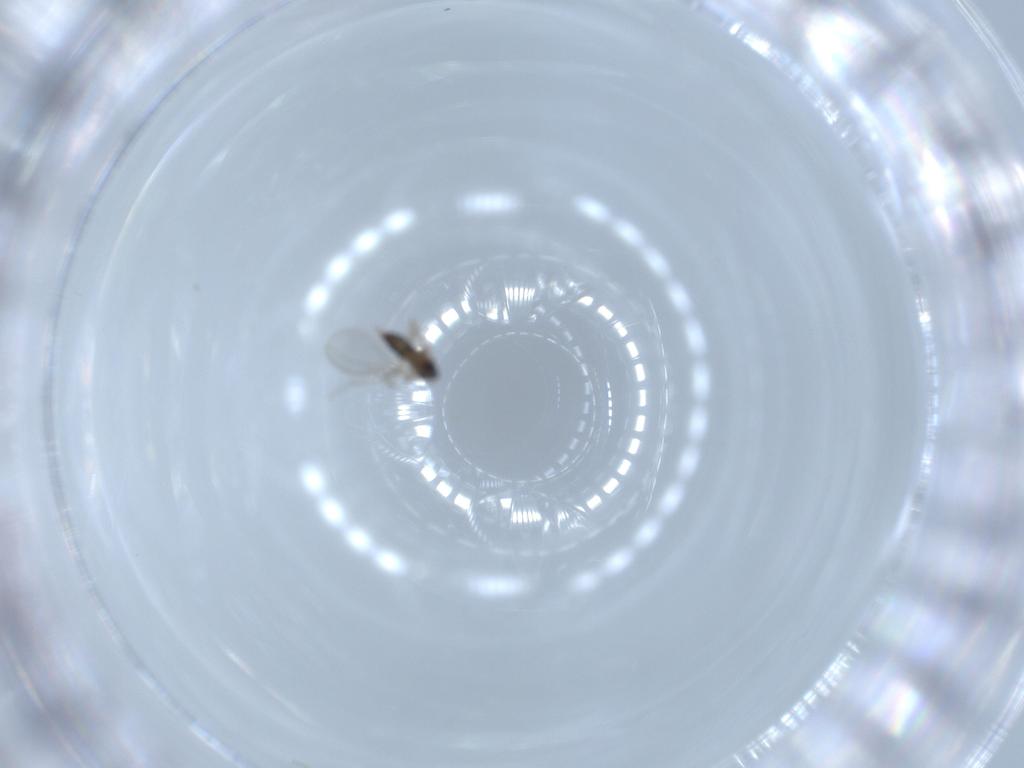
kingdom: Animalia
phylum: Arthropoda
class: Insecta
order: Diptera
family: Cecidomyiidae
